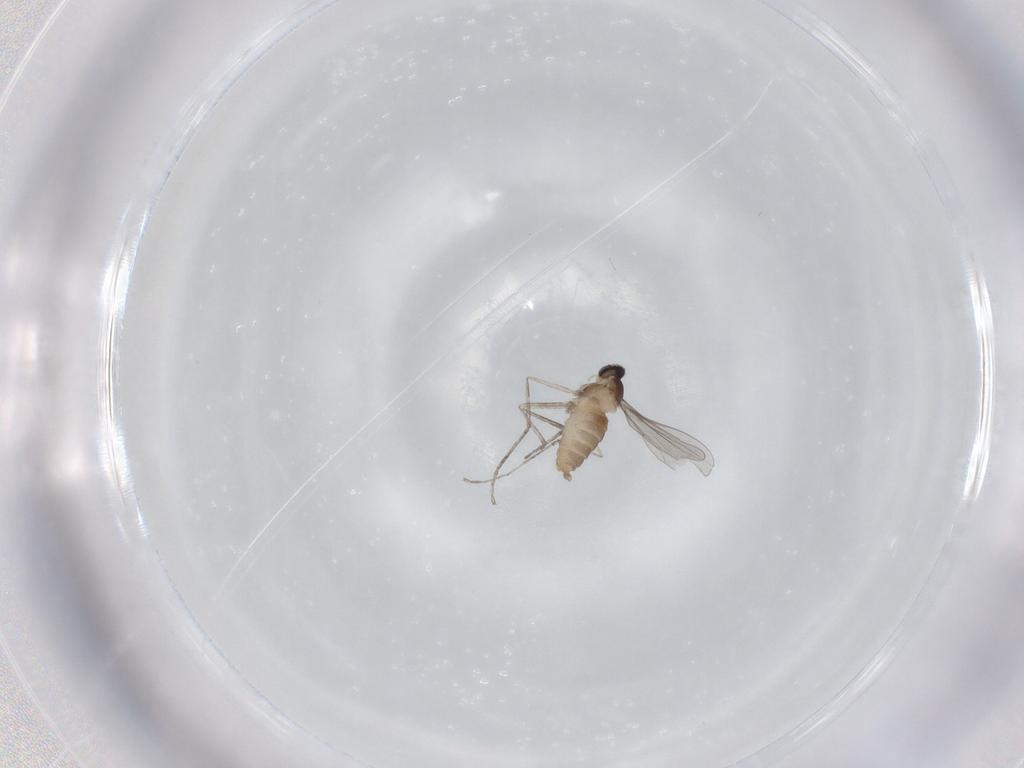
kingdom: Animalia
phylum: Arthropoda
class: Insecta
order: Diptera
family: Cecidomyiidae
